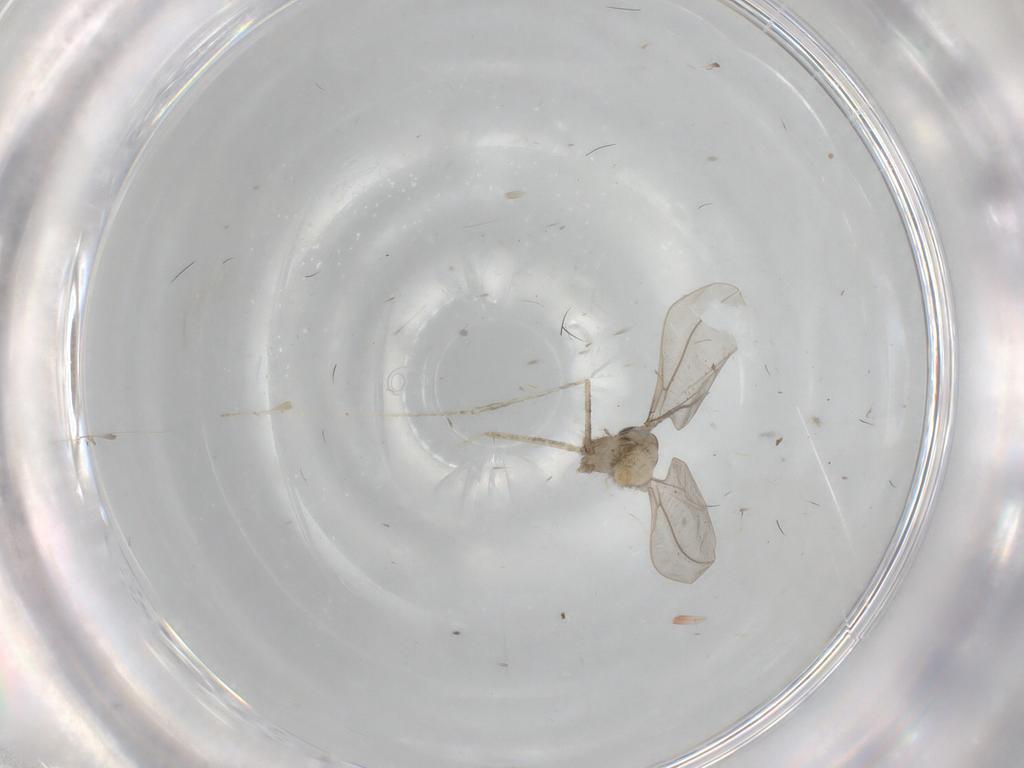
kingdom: Animalia
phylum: Arthropoda
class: Insecta
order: Diptera
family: Cecidomyiidae
